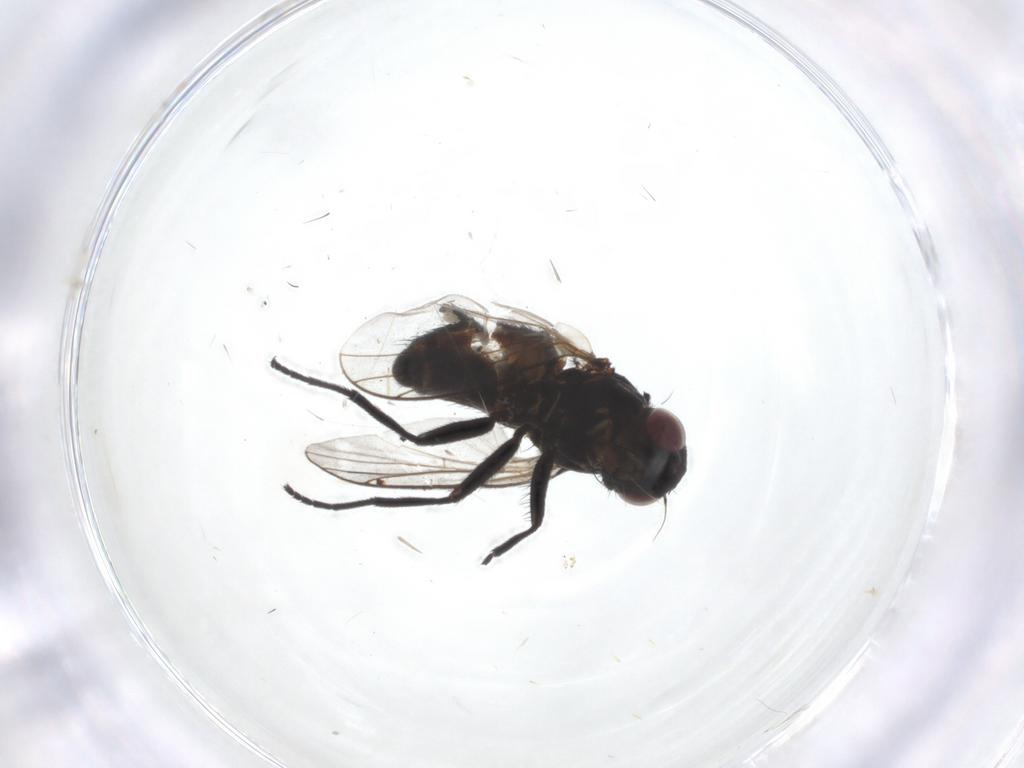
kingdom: Animalia
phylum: Arthropoda
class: Insecta
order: Diptera
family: Agromyzidae
